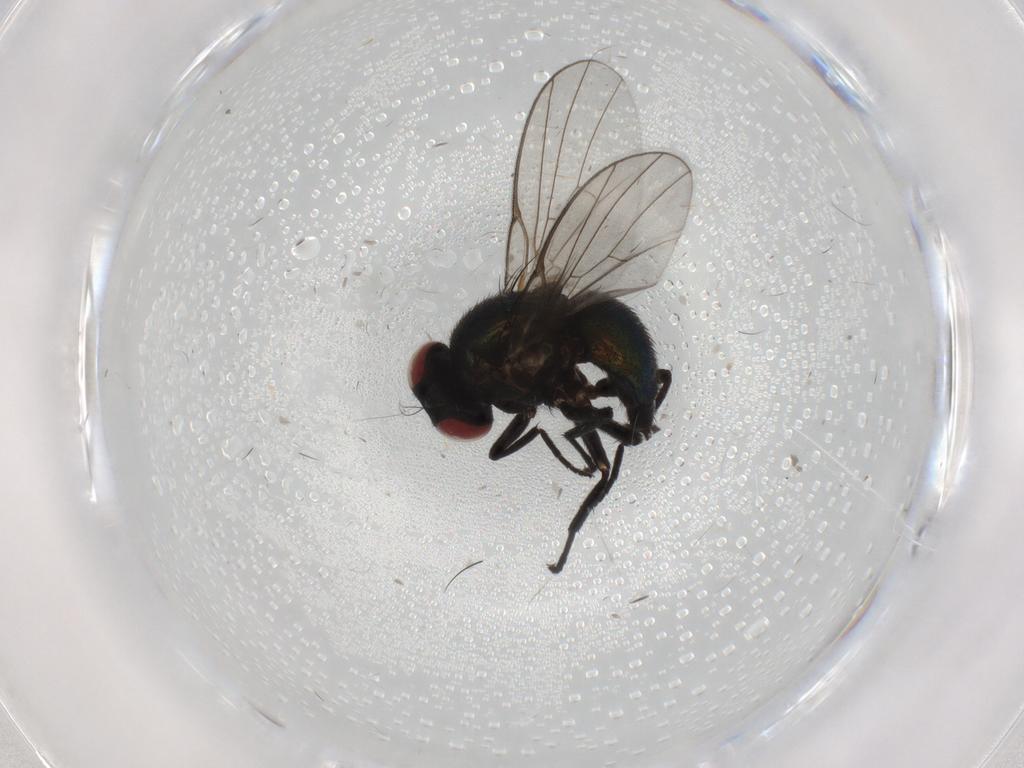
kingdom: Animalia
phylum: Arthropoda
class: Insecta
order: Diptera
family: Agromyzidae
